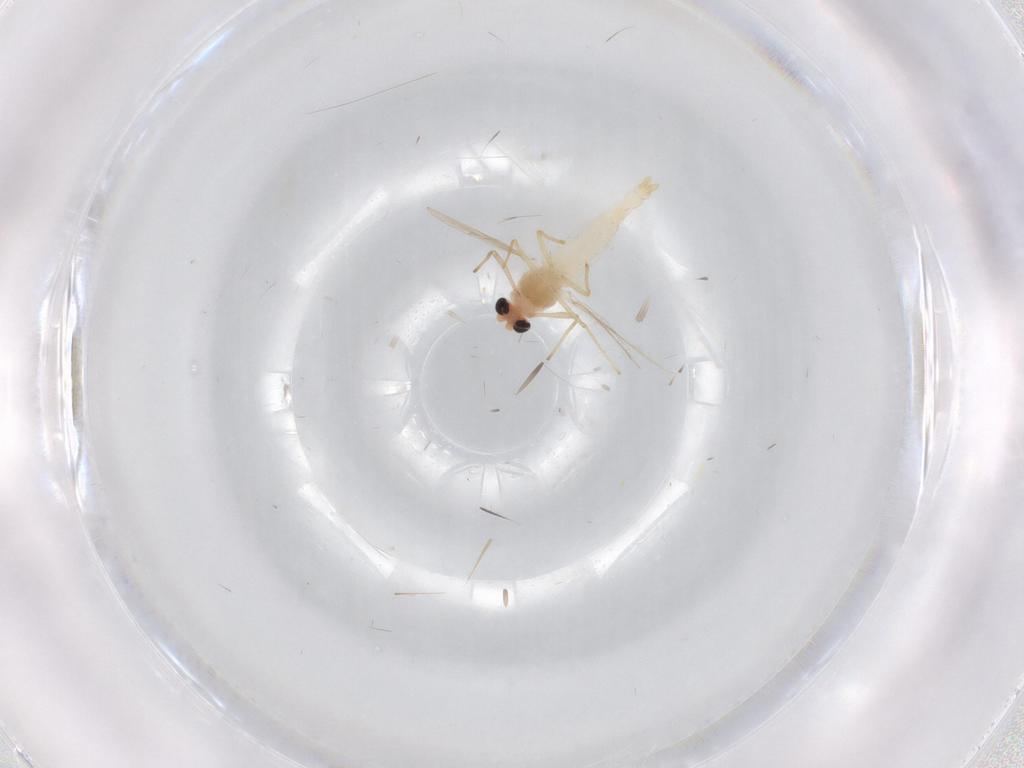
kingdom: Animalia
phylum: Arthropoda
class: Insecta
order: Diptera
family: Chironomidae
